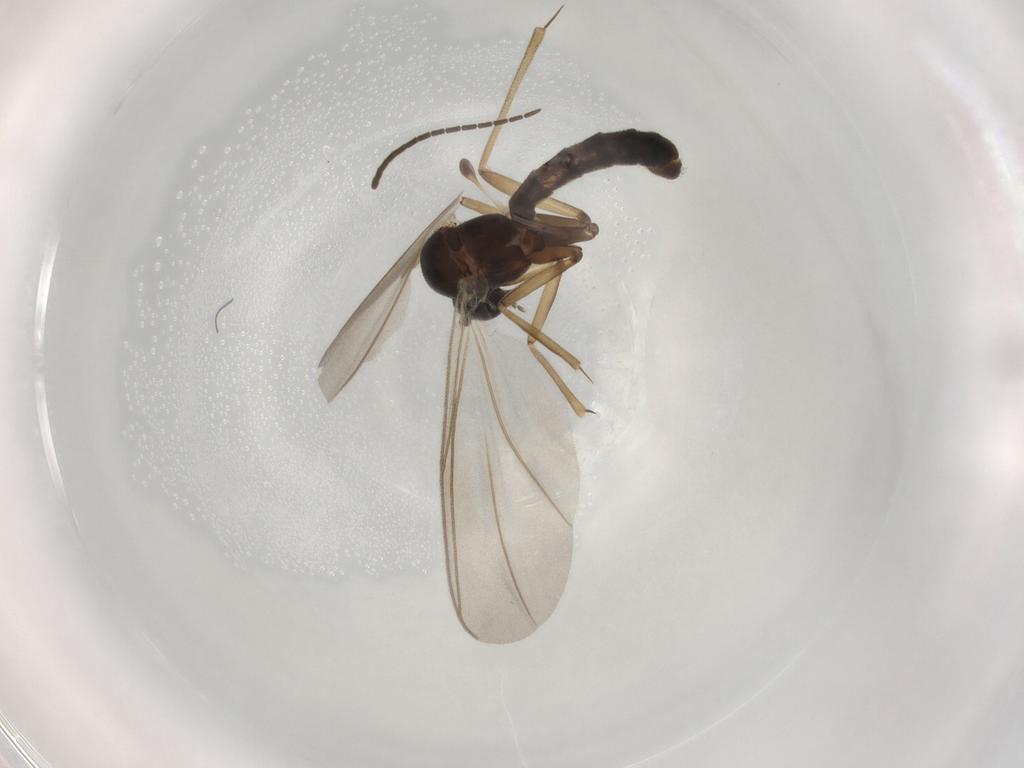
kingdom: Animalia
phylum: Arthropoda
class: Insecta
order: Diptera
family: Mycetophilidae
